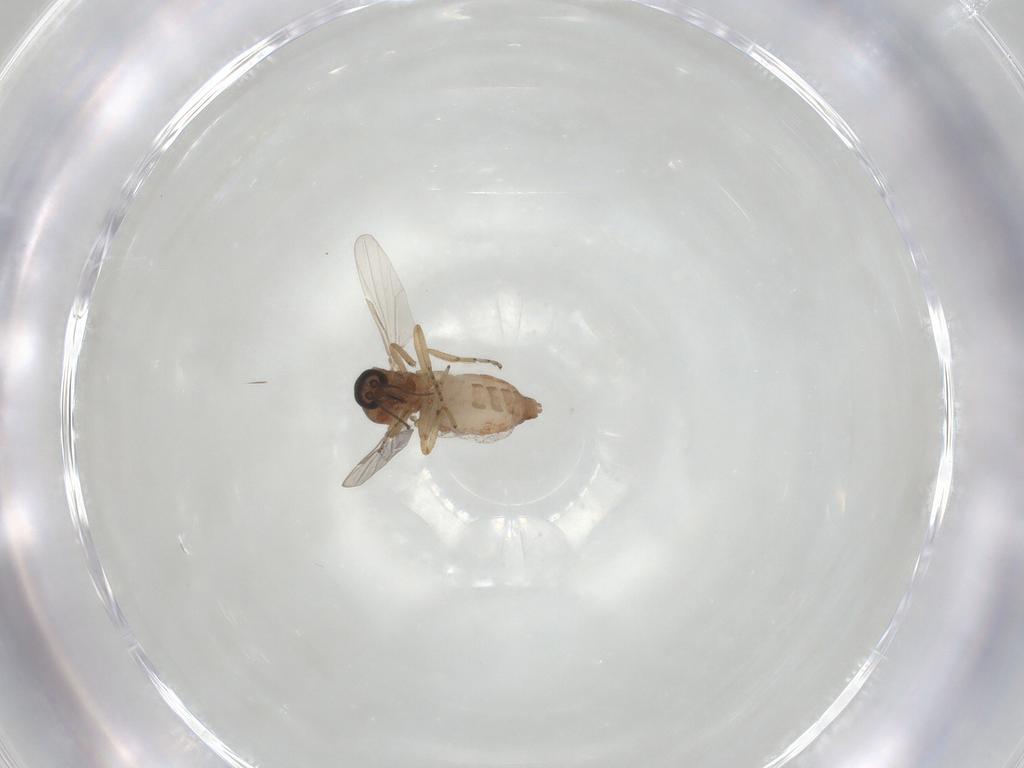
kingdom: Animalia
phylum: Arthropoda
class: Insecta
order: Diptera
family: Ceratopogonidae
